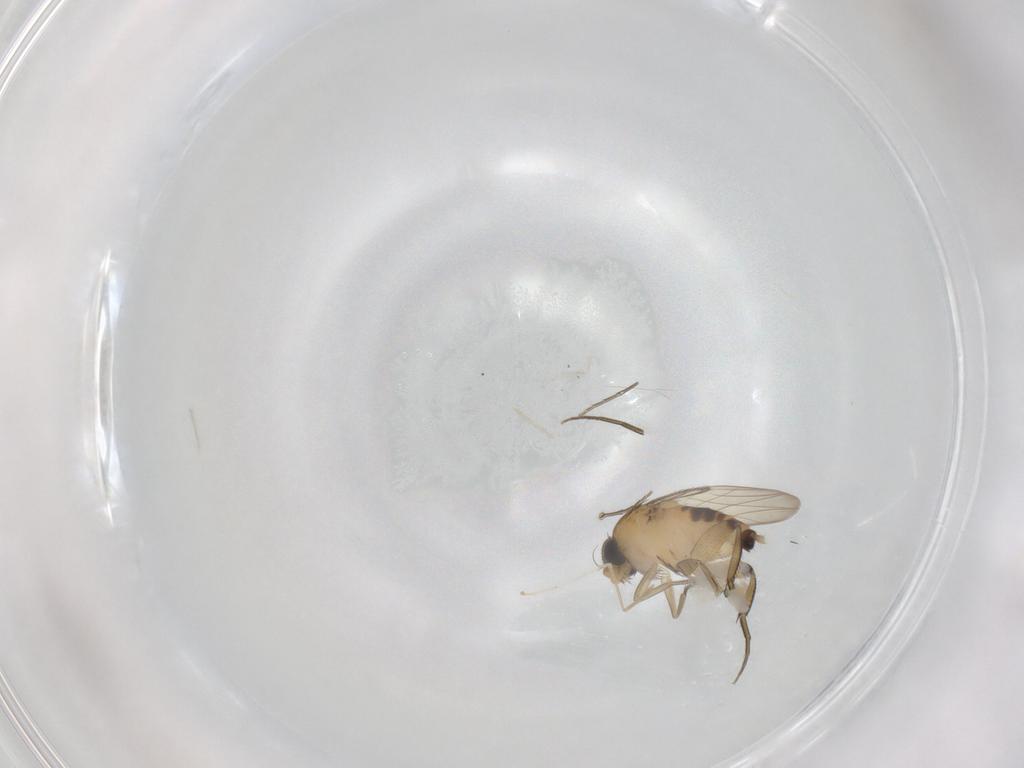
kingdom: Animalia
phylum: Arthropoda
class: Insecta
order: Diptera
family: Phoridae
